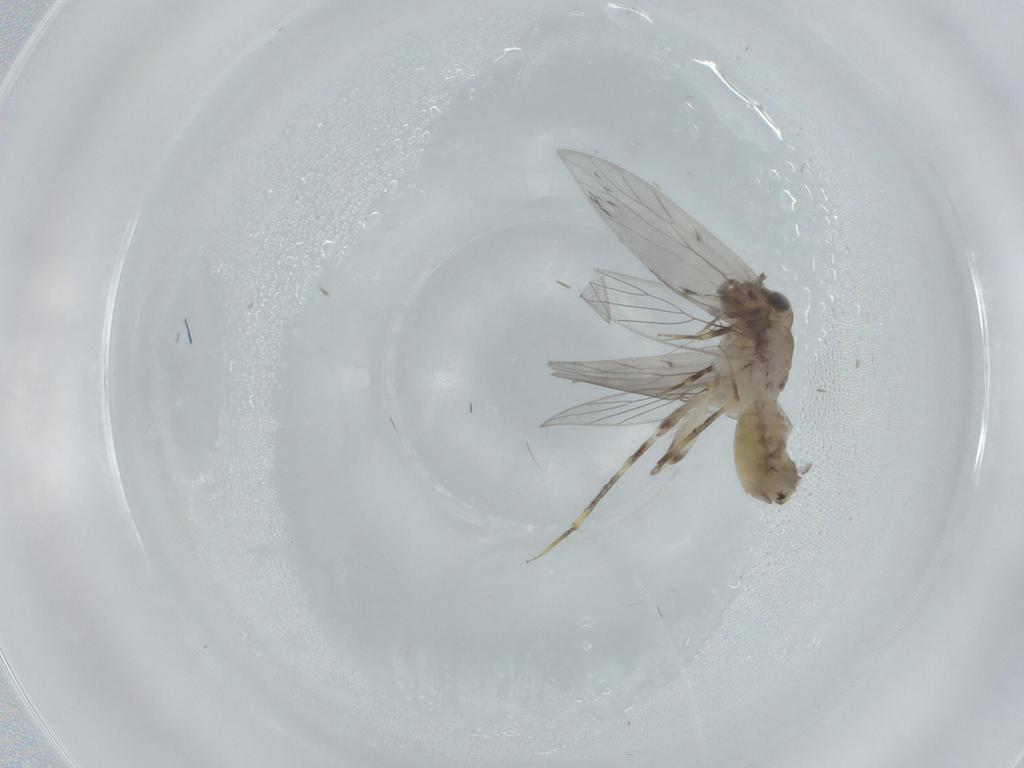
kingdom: Animalia
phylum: Arthropoda
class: Insecta
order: Psocodea
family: Lepidopsocidae
